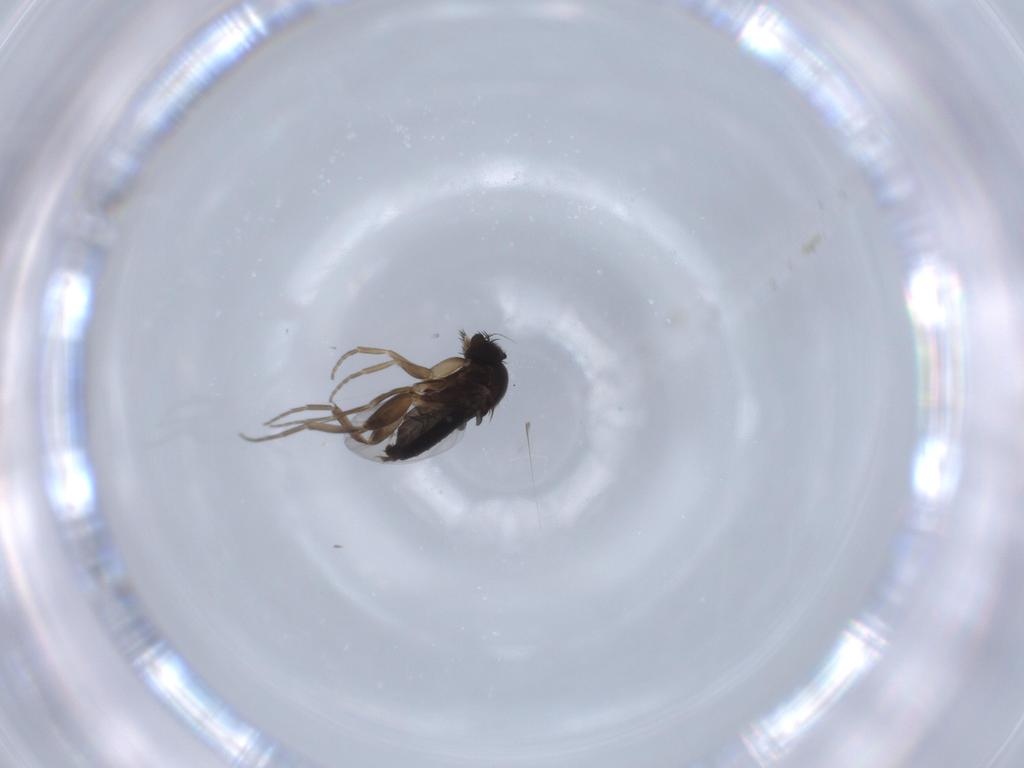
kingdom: Animalia
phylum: Arthropoda
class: Insecta
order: Diptera
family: Phoridae
